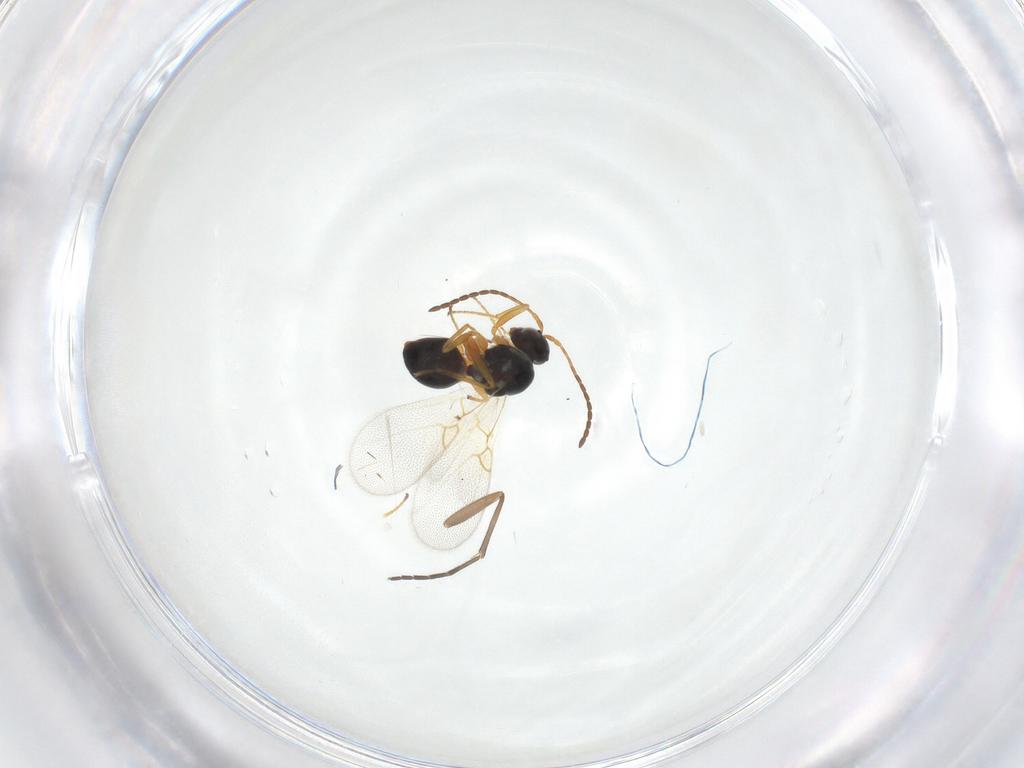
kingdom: Animalia
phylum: Arthropoda
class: Insecta
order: Hymenoptera
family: Figitidae
